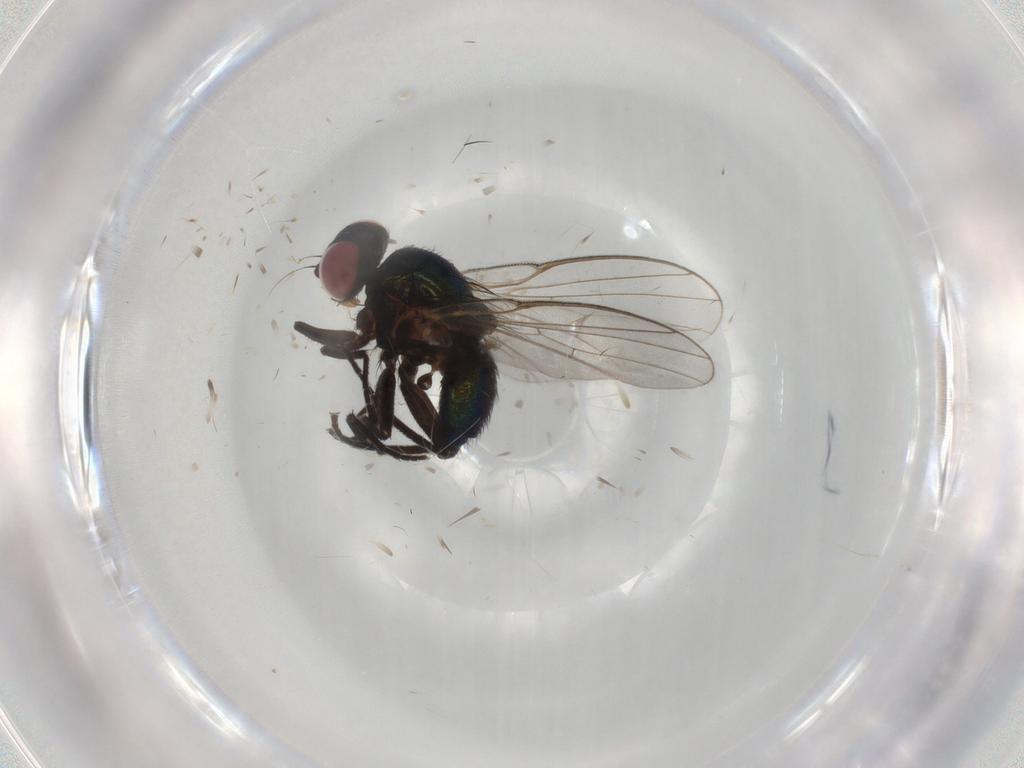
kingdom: Animalia
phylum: Arthropoda
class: Insecta
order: Diptera
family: Agromyzidae
